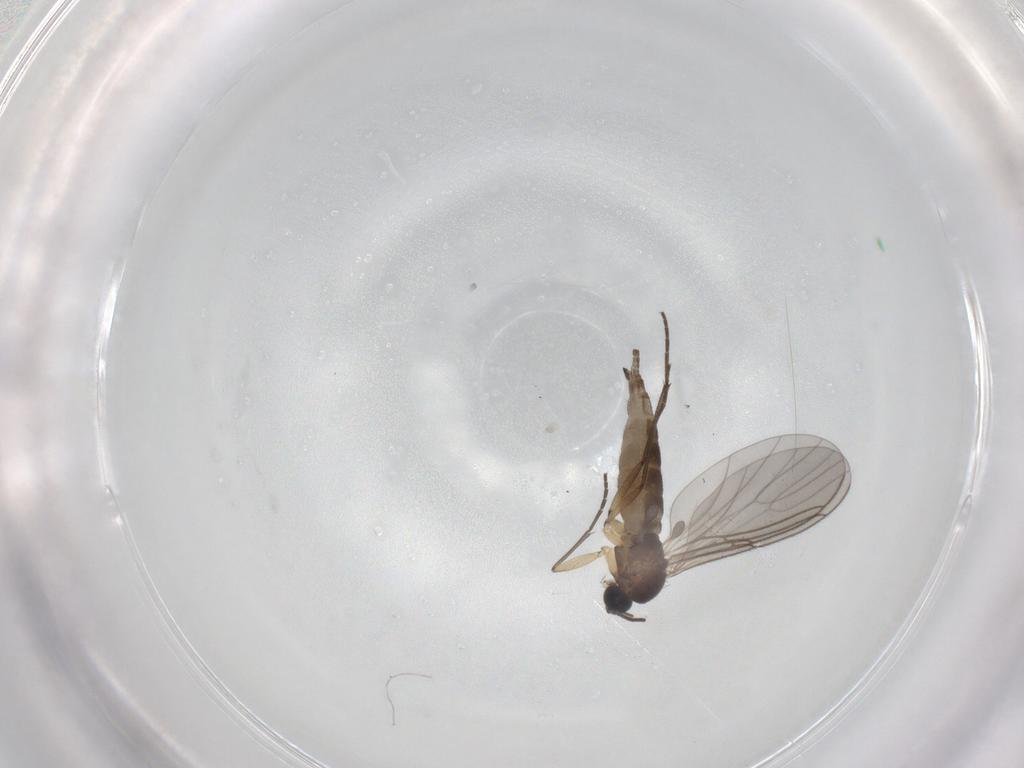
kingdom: Animalia
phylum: Arthropoda
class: Insecta
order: Diptera
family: Sciaridae
